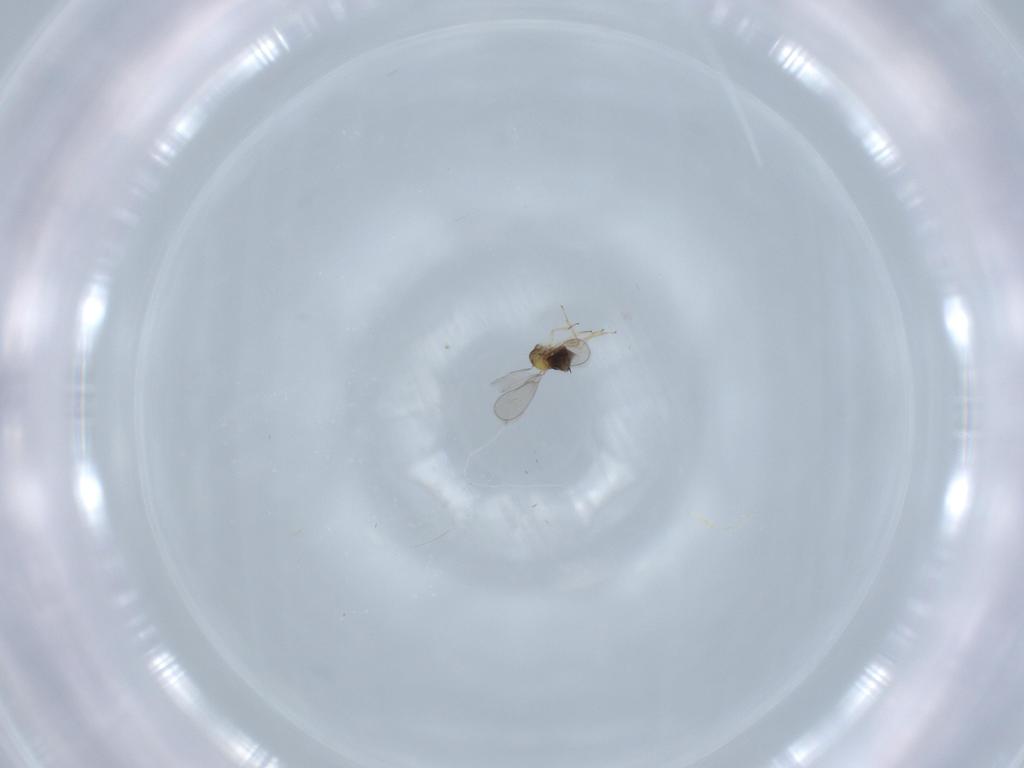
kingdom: Animalia
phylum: Arthropoda
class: Insecta
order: Hymenoptera
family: Aphelinidae
